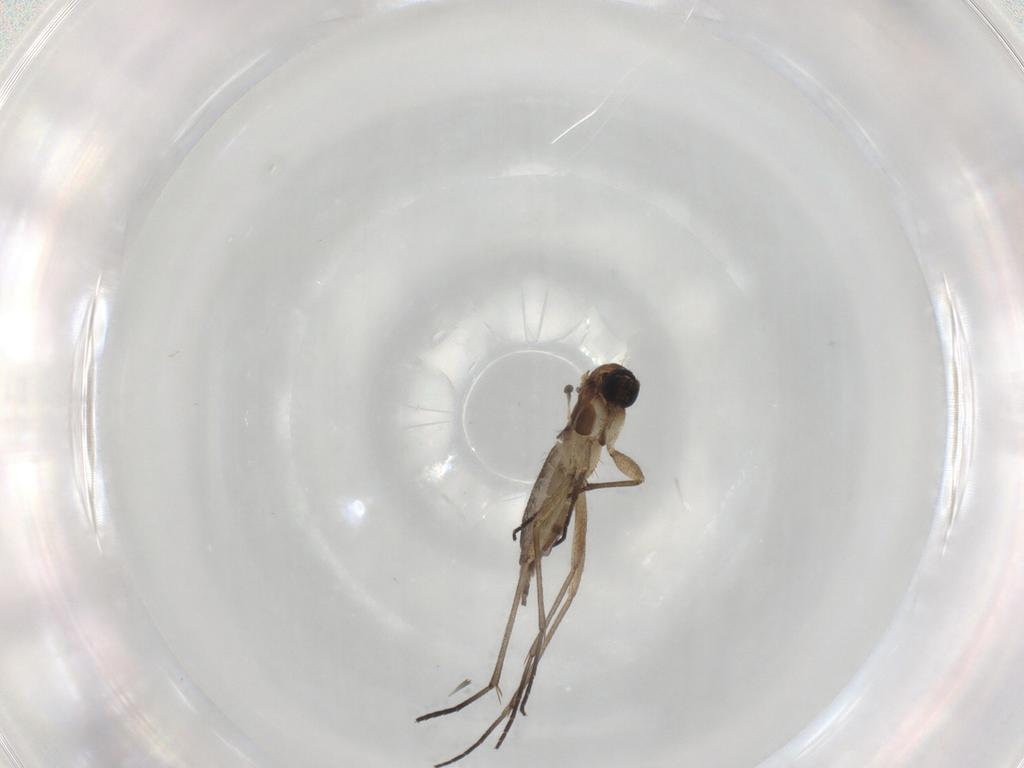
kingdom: Animalia
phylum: Arthropoda
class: Insecta
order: Diptera
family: Sciaridae
